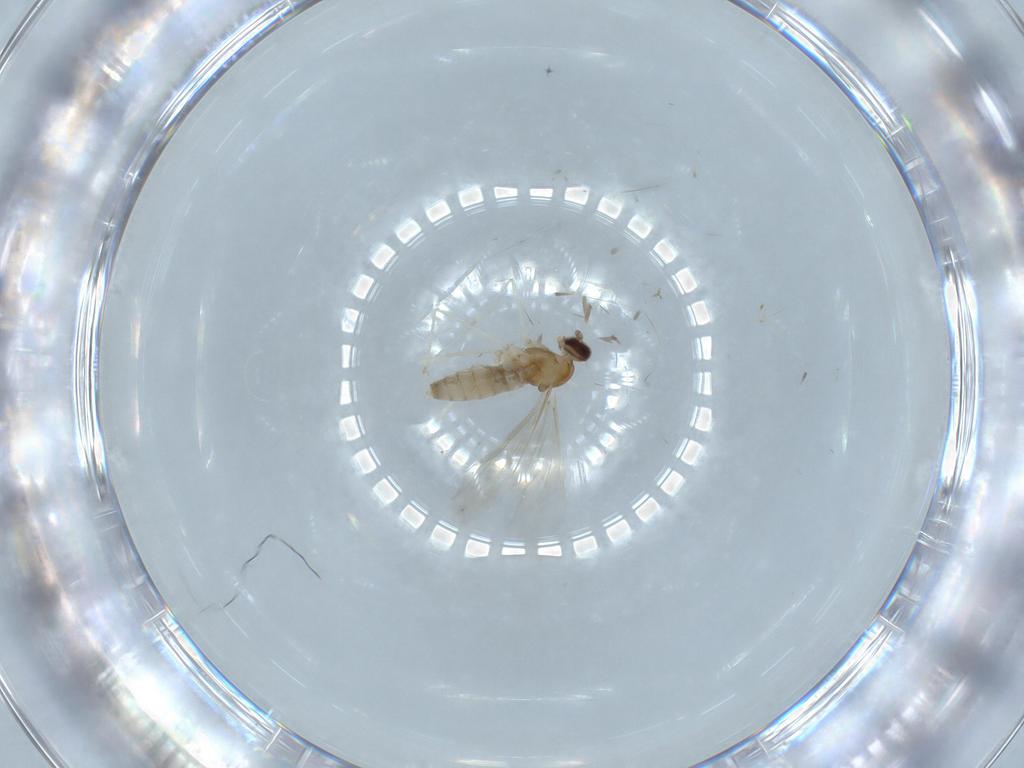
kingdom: Animalia
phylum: Arthropoda
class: Insecta
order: Diptera
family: Cecidomyiidae
